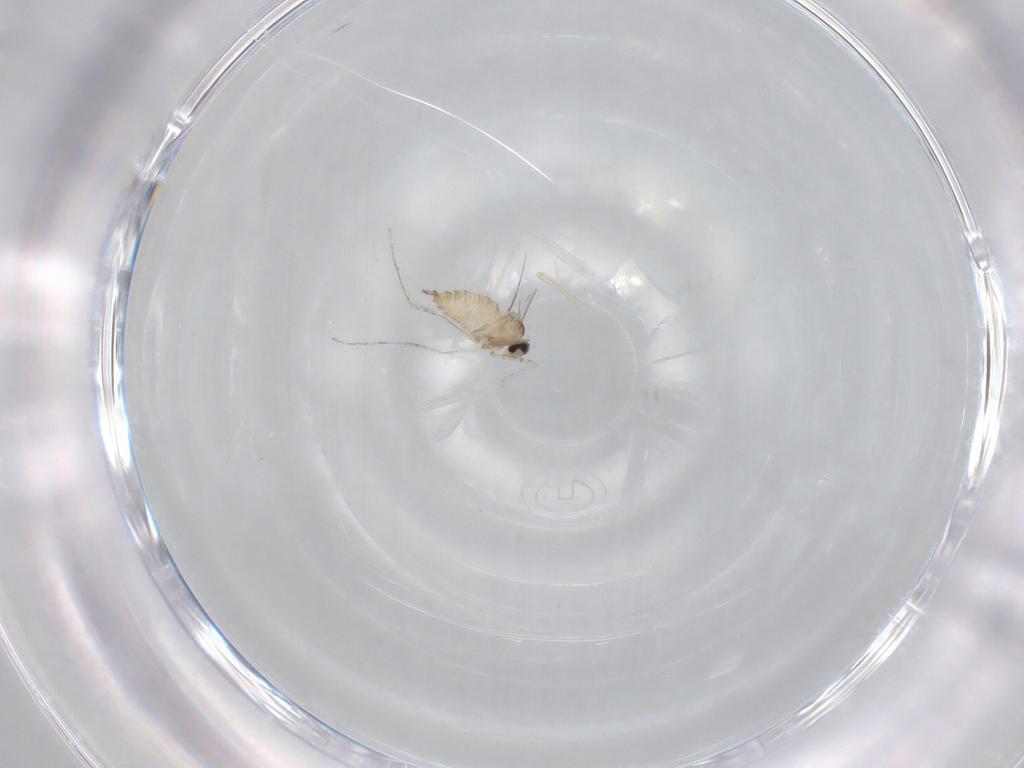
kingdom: Animalia
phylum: Arthropoda
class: Insecta
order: Diptera
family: Cecidomyiidae
